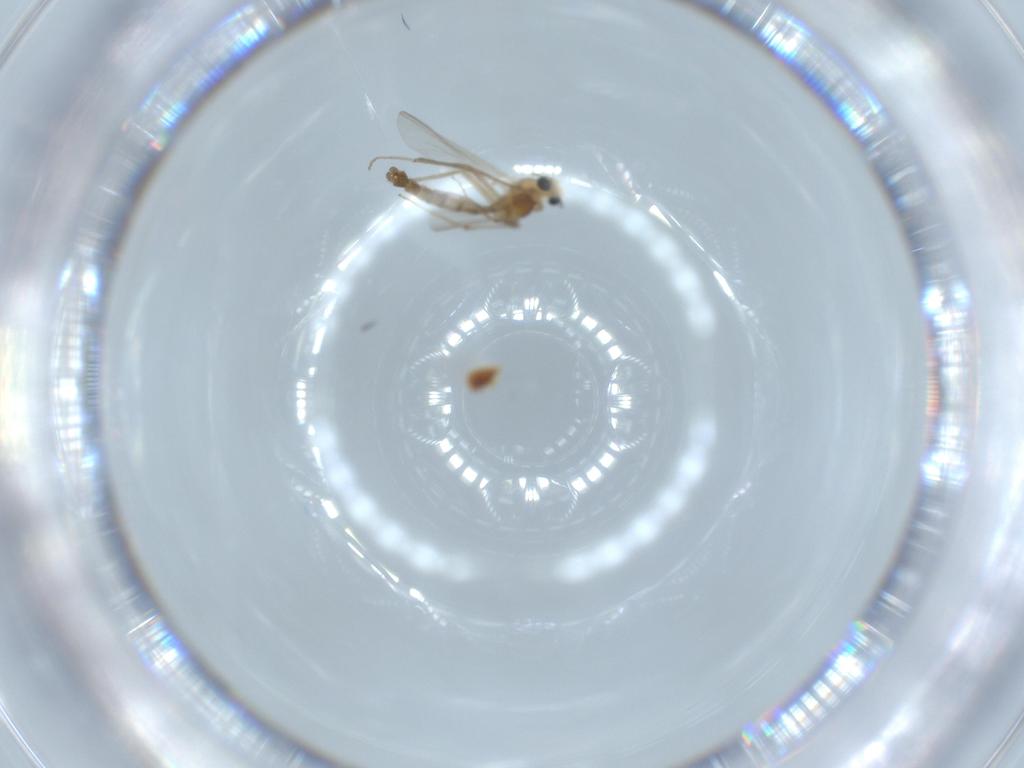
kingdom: Animalia
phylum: Arthropoda
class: Insecta
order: Diptera
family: Chironomidae
